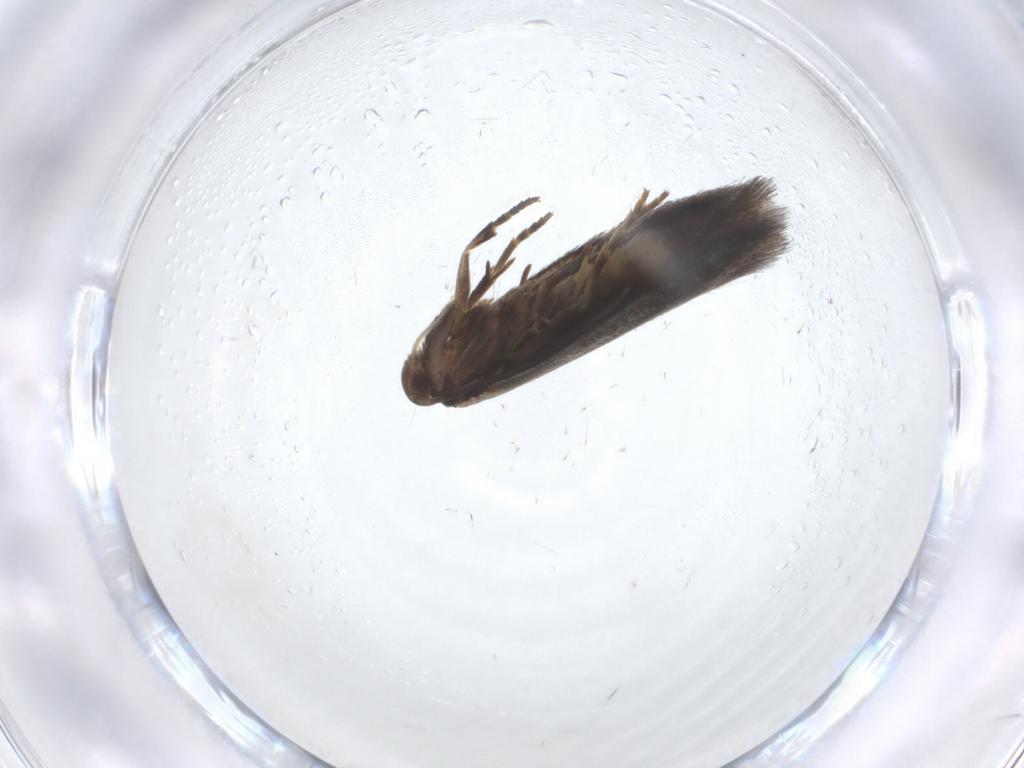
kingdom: Animalia
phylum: Arthropoda
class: Insecta
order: Lepidoptera
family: Elachistidae
